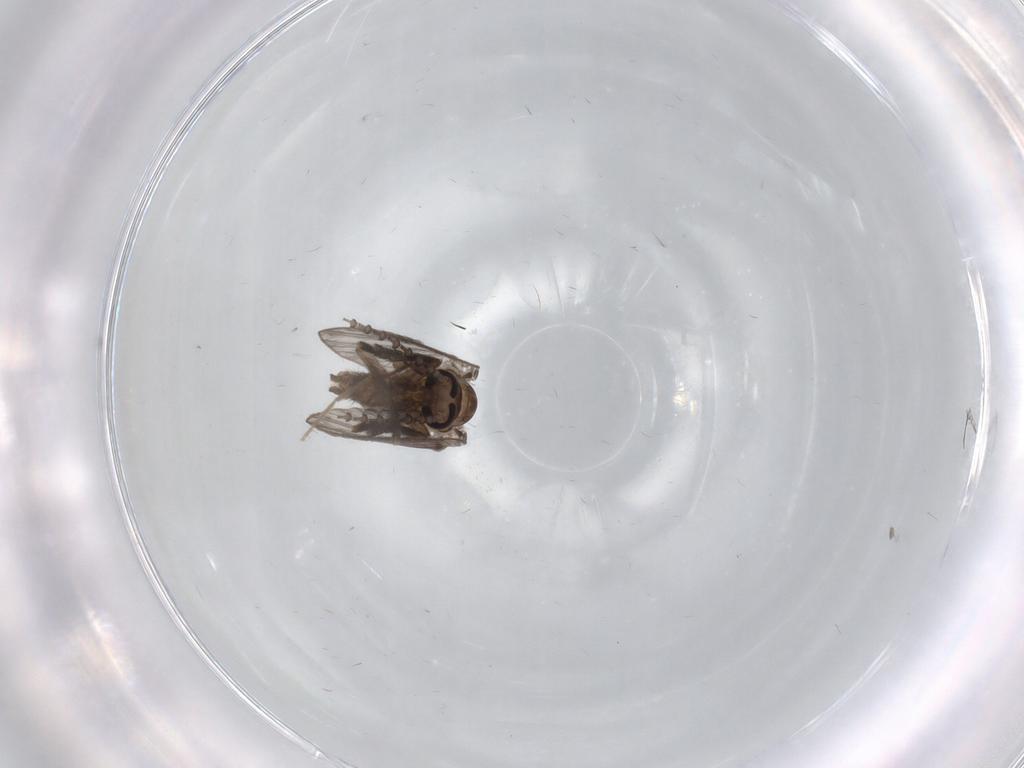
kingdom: Animalia
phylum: Arthropoda
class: Insecta
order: Diptera
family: Psychodidae
